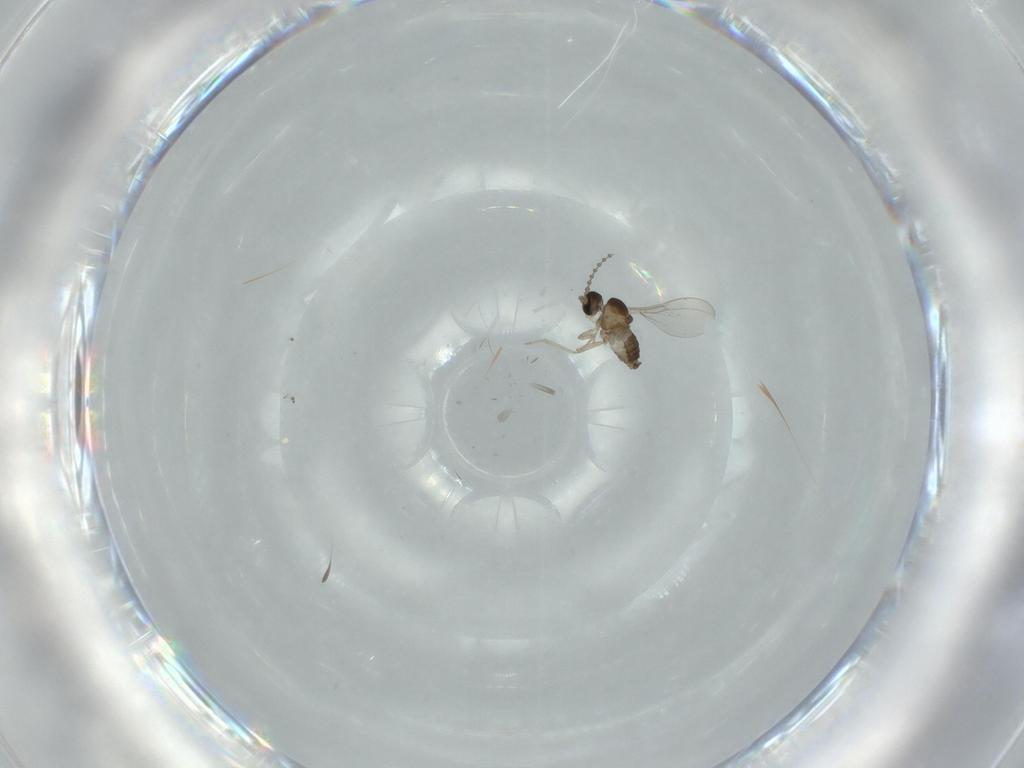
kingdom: Animalia
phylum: Arthropoda
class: Insecta
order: Diptera
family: Cecidomyiidae
